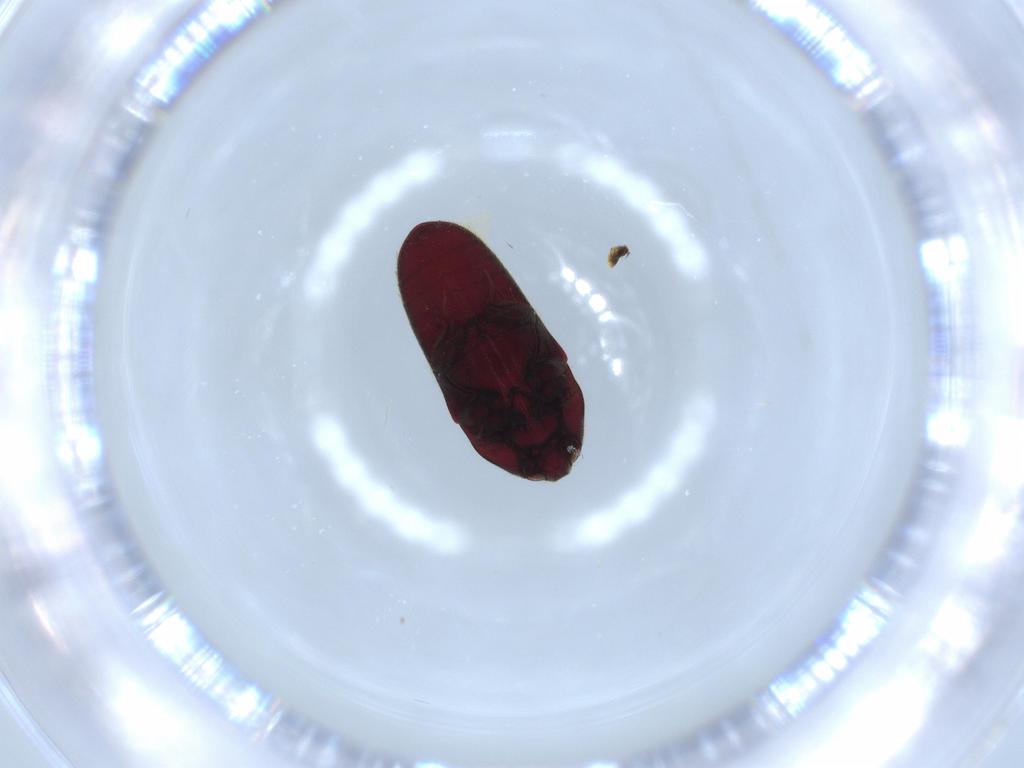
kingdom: Animalia
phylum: Arthropoda
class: Insecta
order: Coleoptera
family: Throscidae
